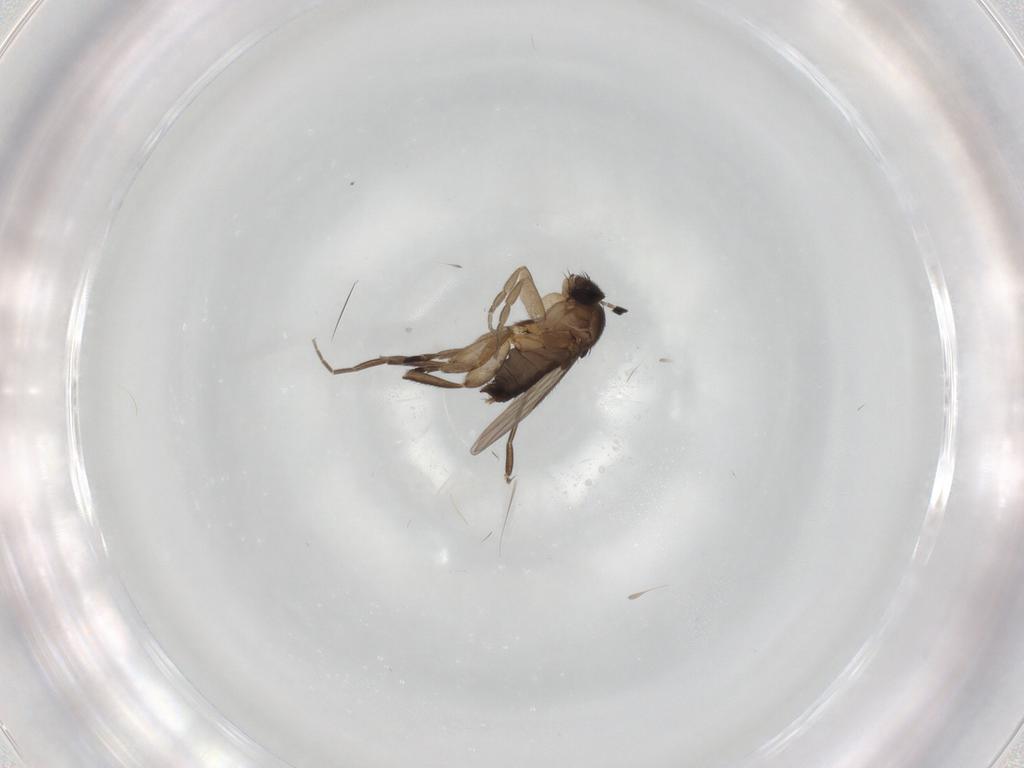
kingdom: Animalia
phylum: Arthropoda
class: Insecta
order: Diptera
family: Chironomidae
